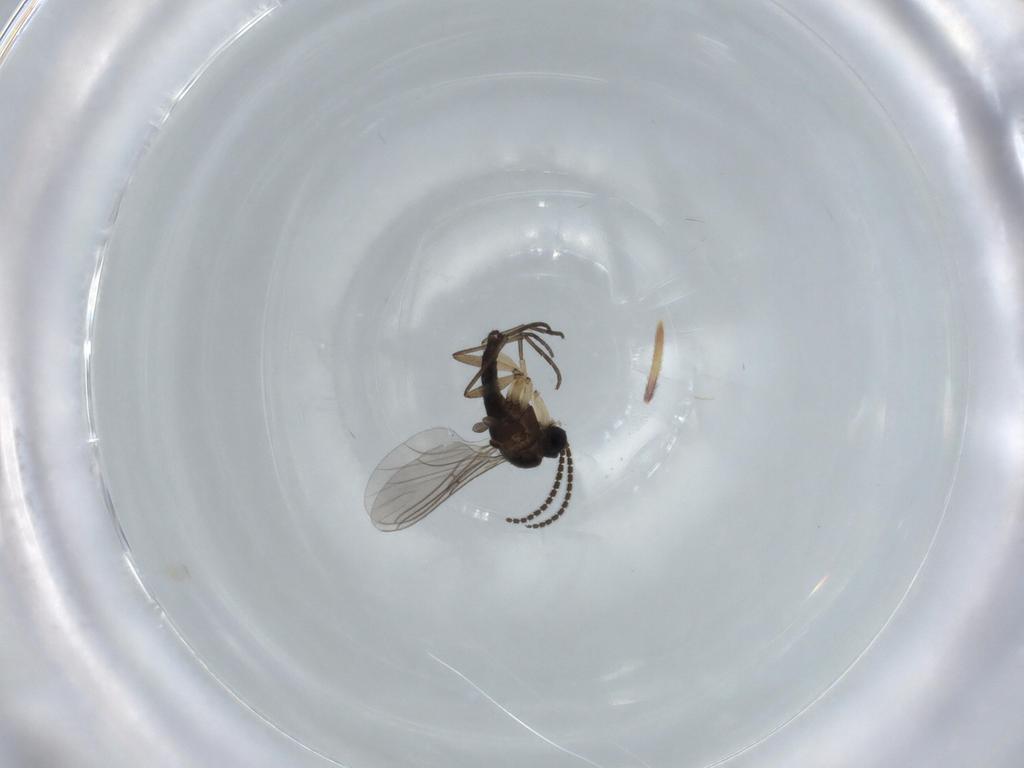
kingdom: Animalia
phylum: Arthropoda
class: Insecta
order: Diptera
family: Sciaridae
